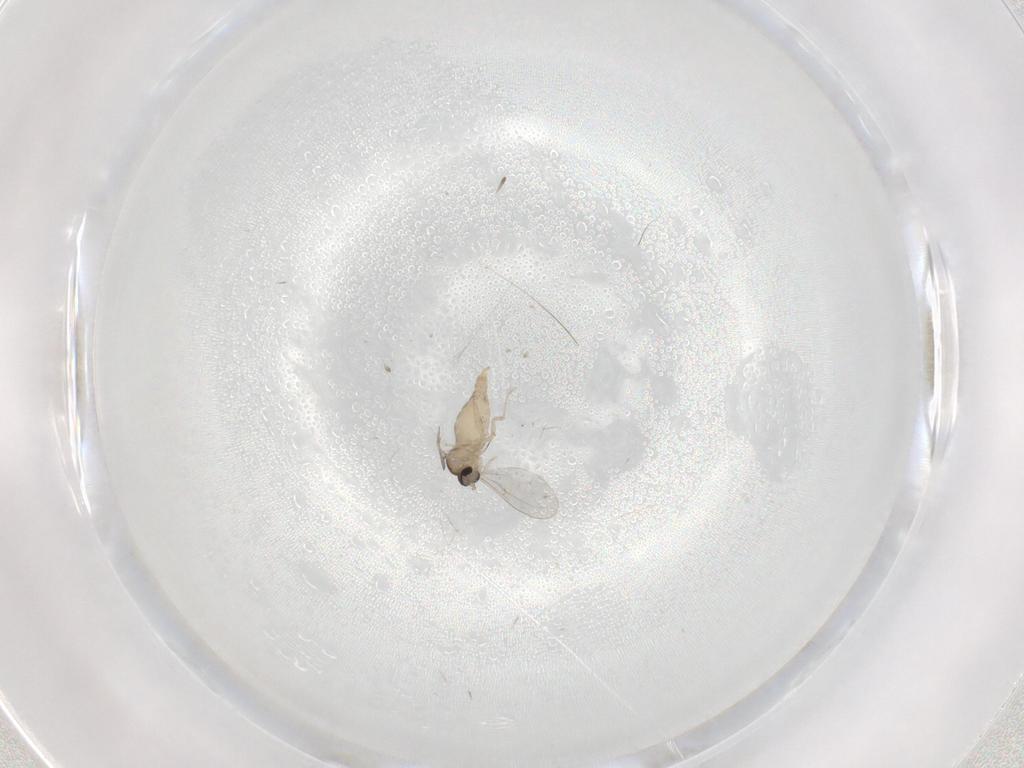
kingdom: Animalia
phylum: Arthropoda
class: Insecta
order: Diptera
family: Cecidomyiidae
